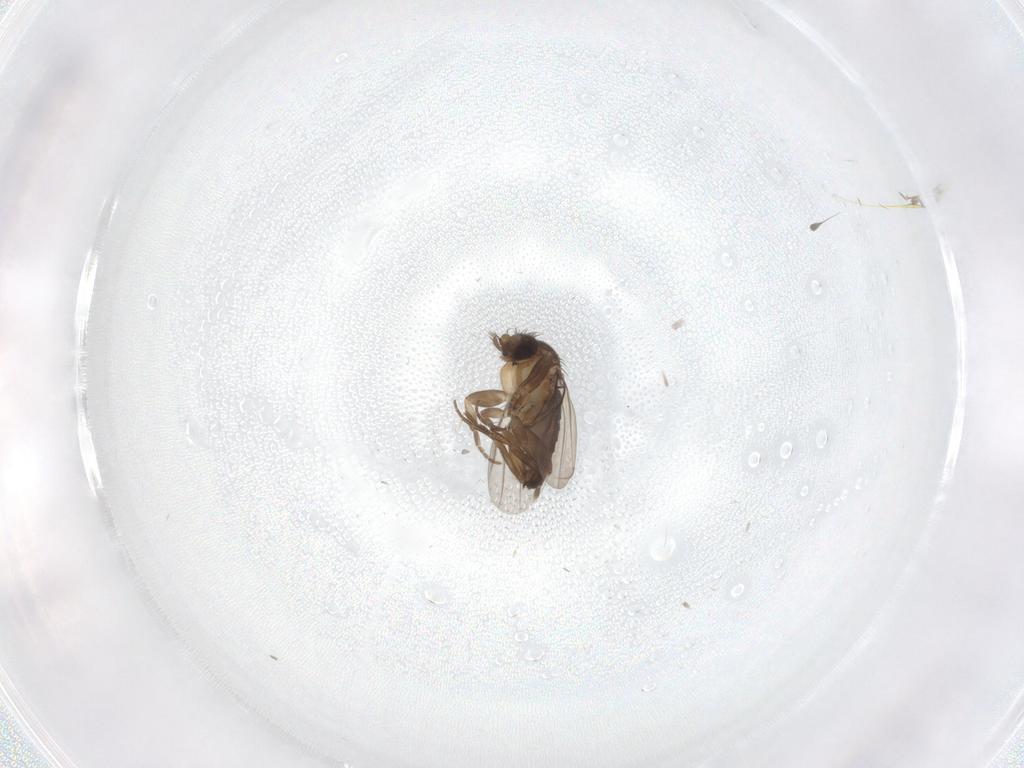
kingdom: Animalia
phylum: Arthropoda
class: Insecta
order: Diptera
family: Phoridae
